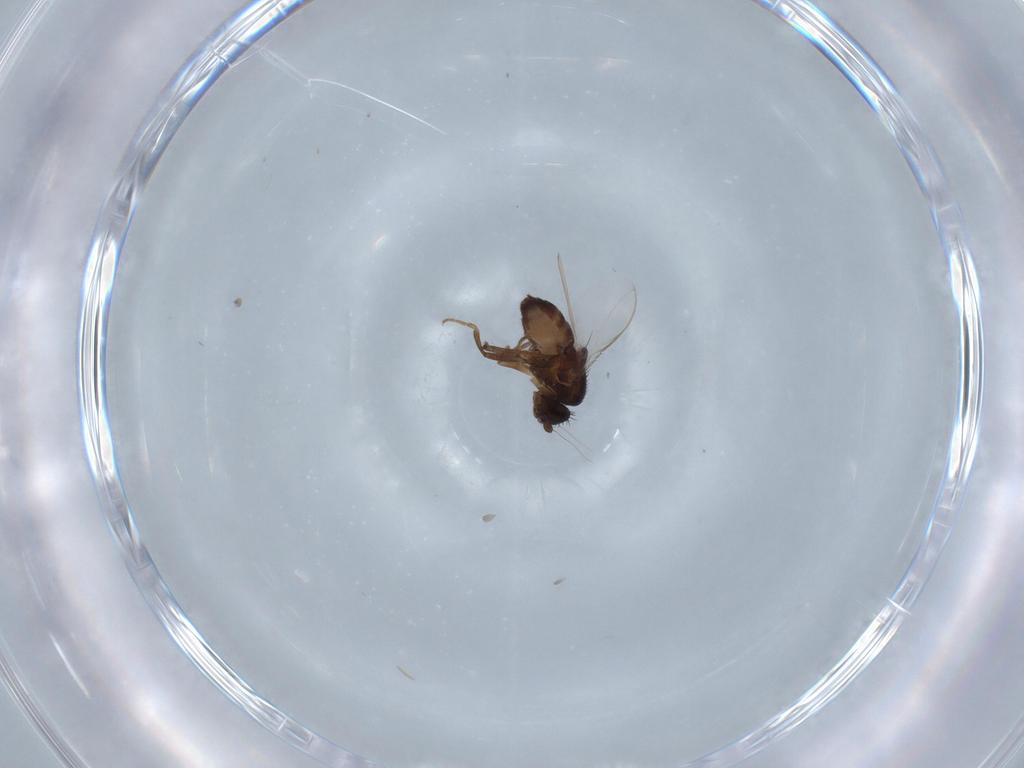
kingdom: Animalia
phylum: Arthropoda
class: Insecta
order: Diptera
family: Sphaeroceridae
